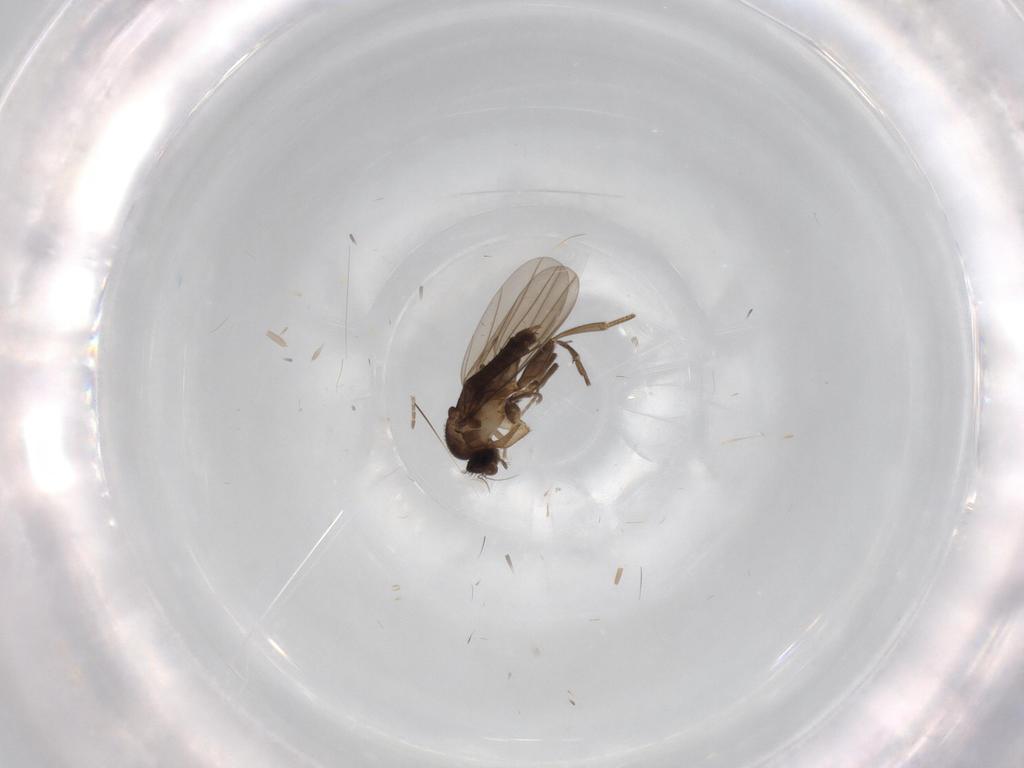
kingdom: Animalia
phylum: Arthropoda
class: Insecta
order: Diptera
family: Phoridae
